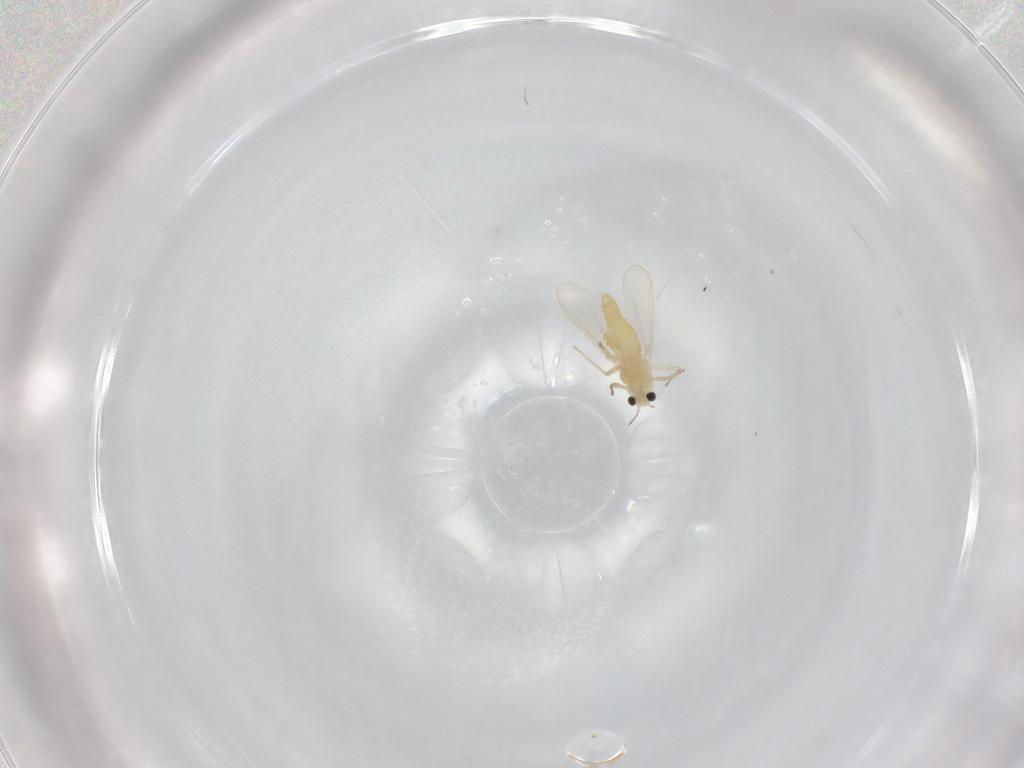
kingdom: Animalia
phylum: Arthropoda
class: Insecta
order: Diptera
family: Chironomidae
